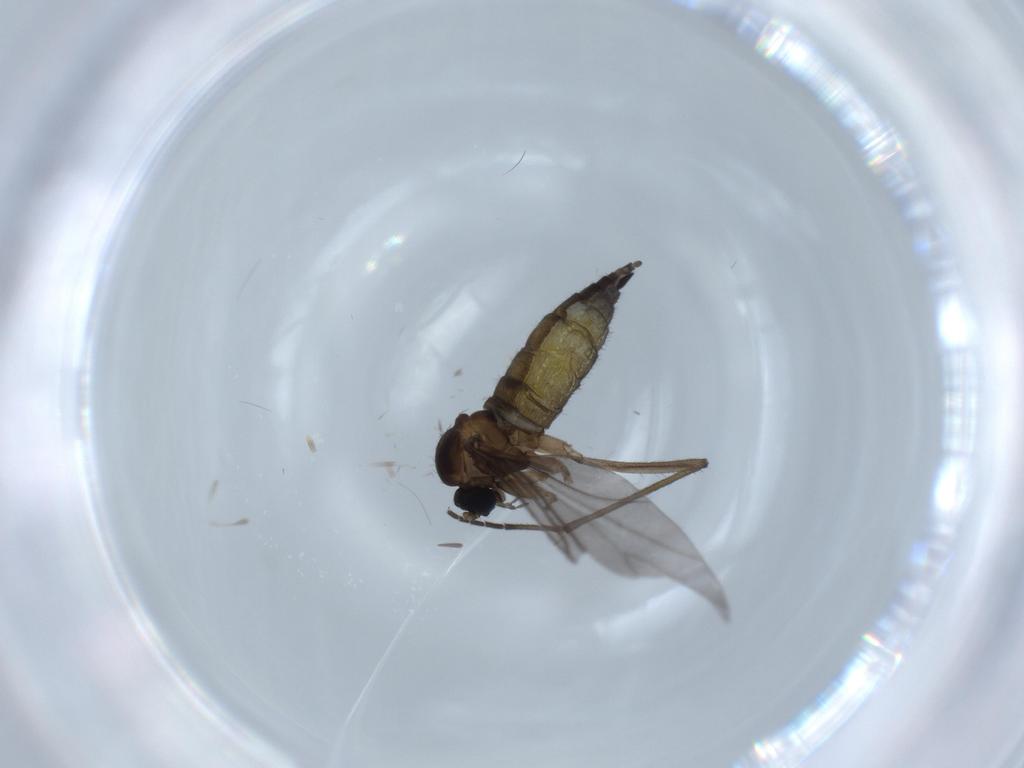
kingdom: Animalia
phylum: Arthropoda
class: Insecta
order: Diptera
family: Sciaridae
